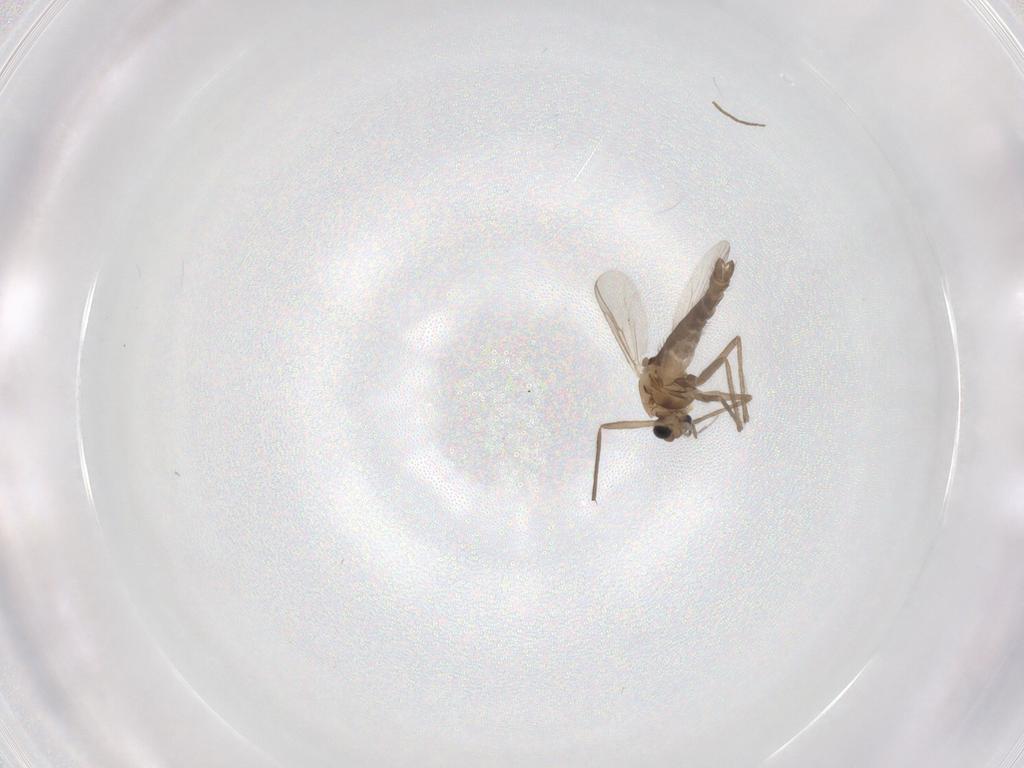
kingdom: Animalia
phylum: Arthropoda
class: Insecta
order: Diptera
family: Chironomidae
